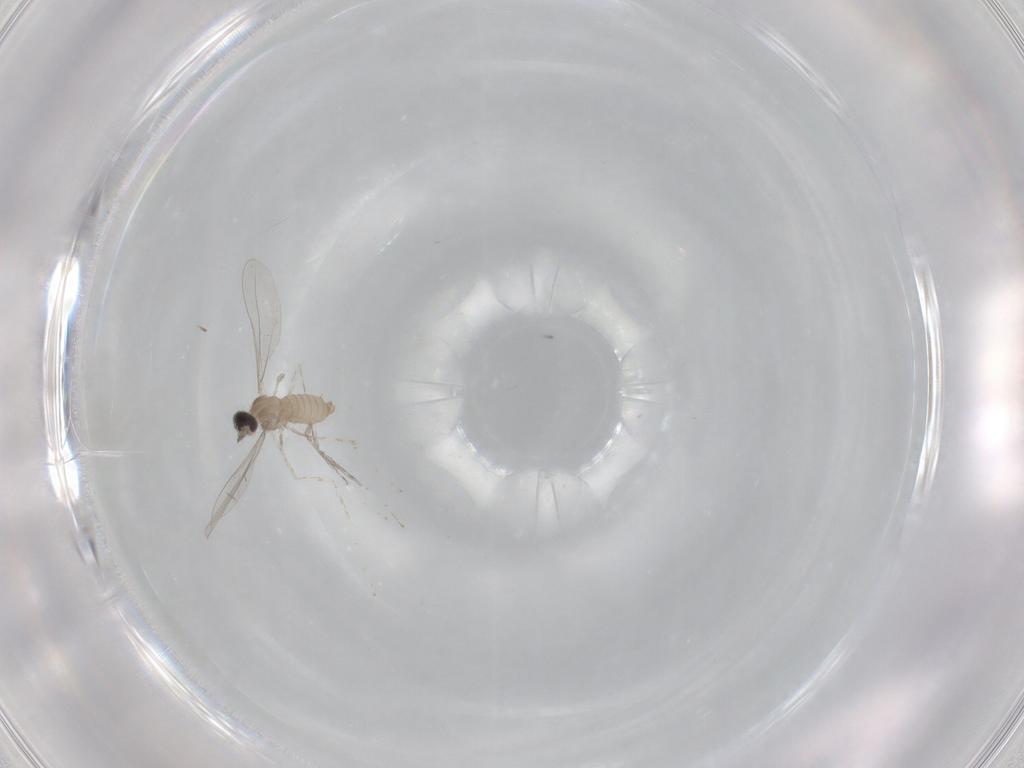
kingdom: Animalia
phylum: Arthropoda
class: Insecta
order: Diptera
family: Cecidomyiidae
